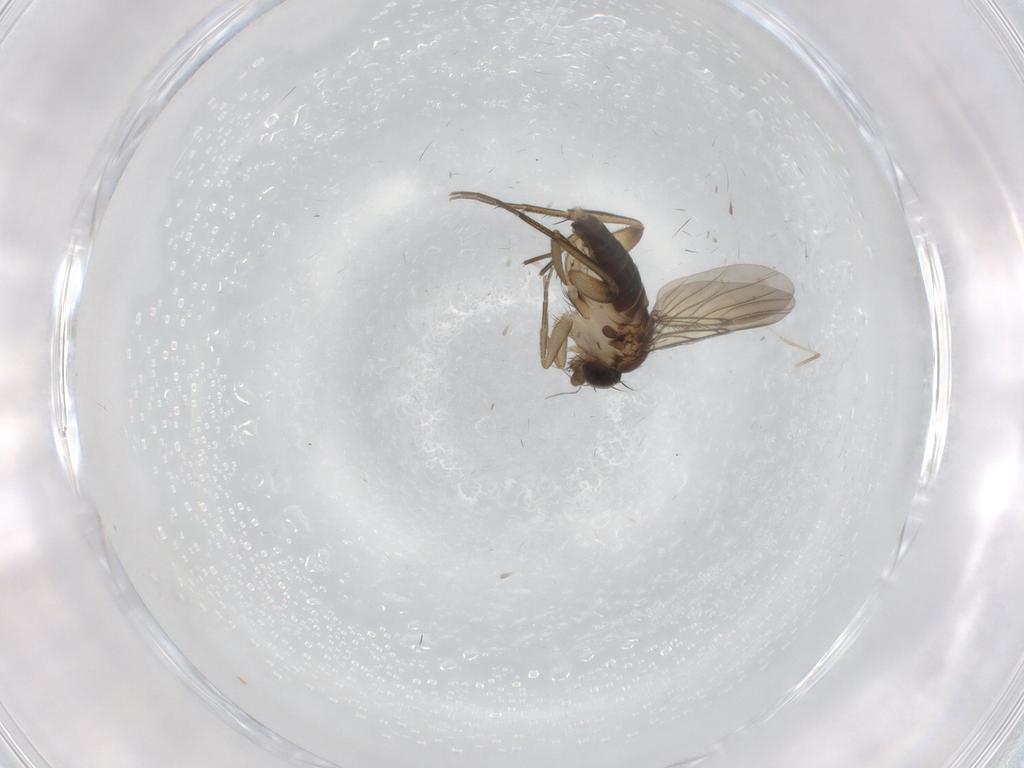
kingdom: Animalia
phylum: Arthropoda
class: Insecta
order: Diptera
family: Phoridae
